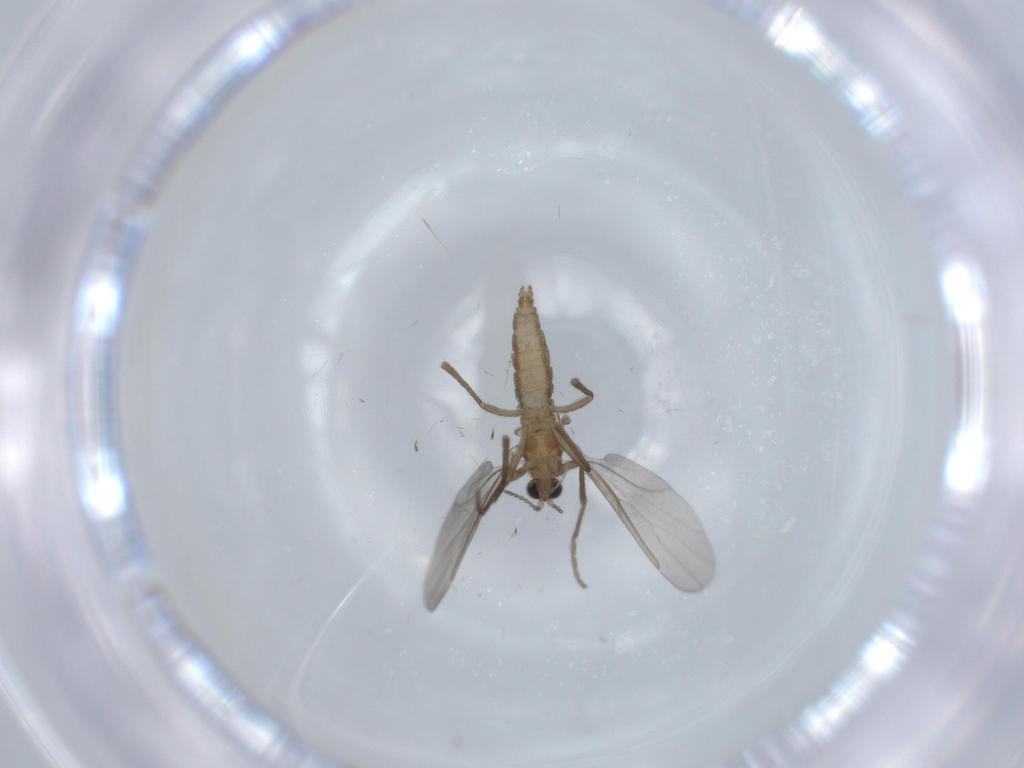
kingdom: Animalia
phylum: Arthropoda
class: Insecta
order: Diptera
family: Cecidomyiidae
